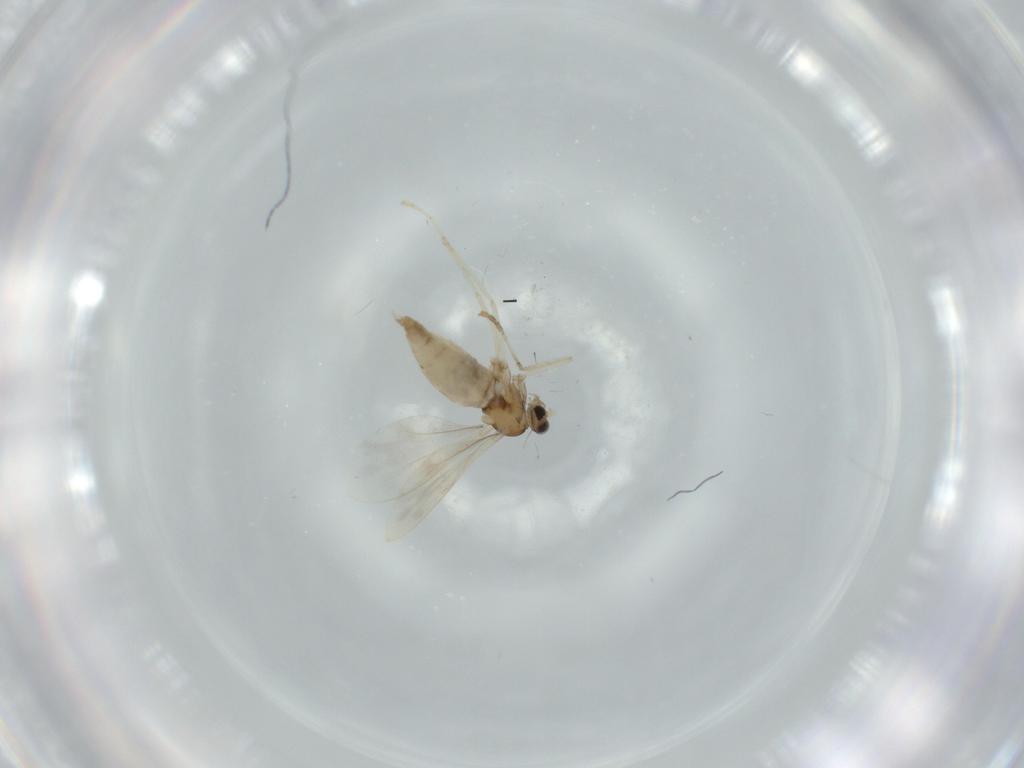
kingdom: Animalia
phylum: Arthropoda
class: Insecta
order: Diptera
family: Cecidomyiidae
